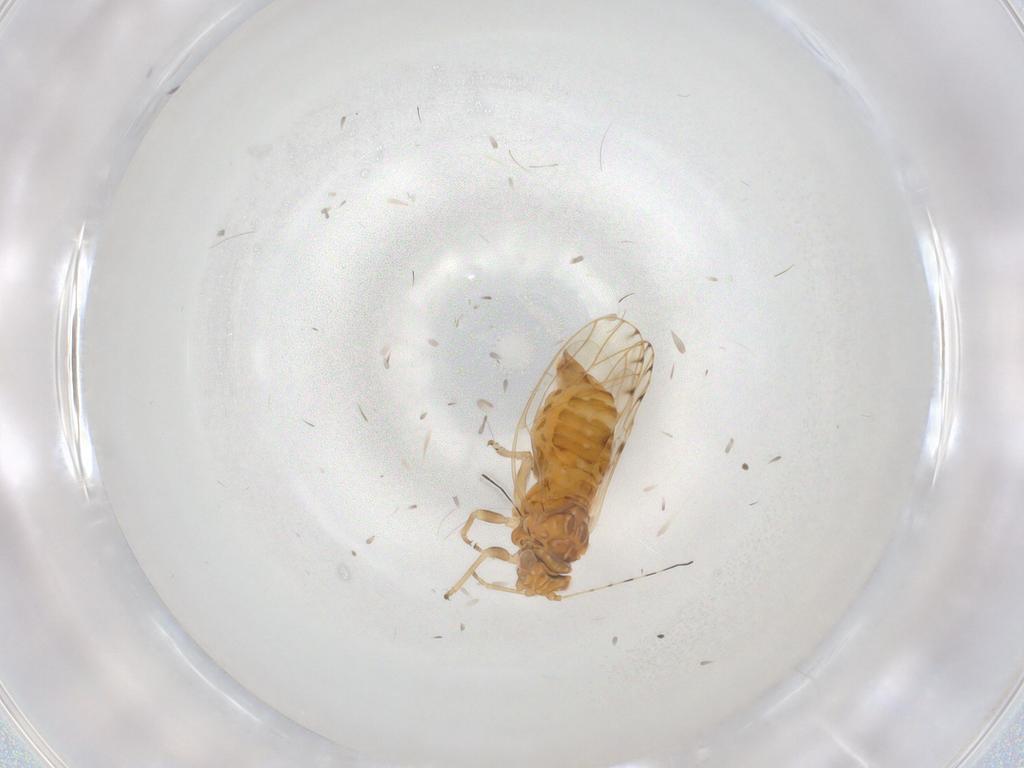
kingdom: Animalia
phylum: Arthropoda
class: Insecta
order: Hemiptera
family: Psylloidea_incertae_sedis
